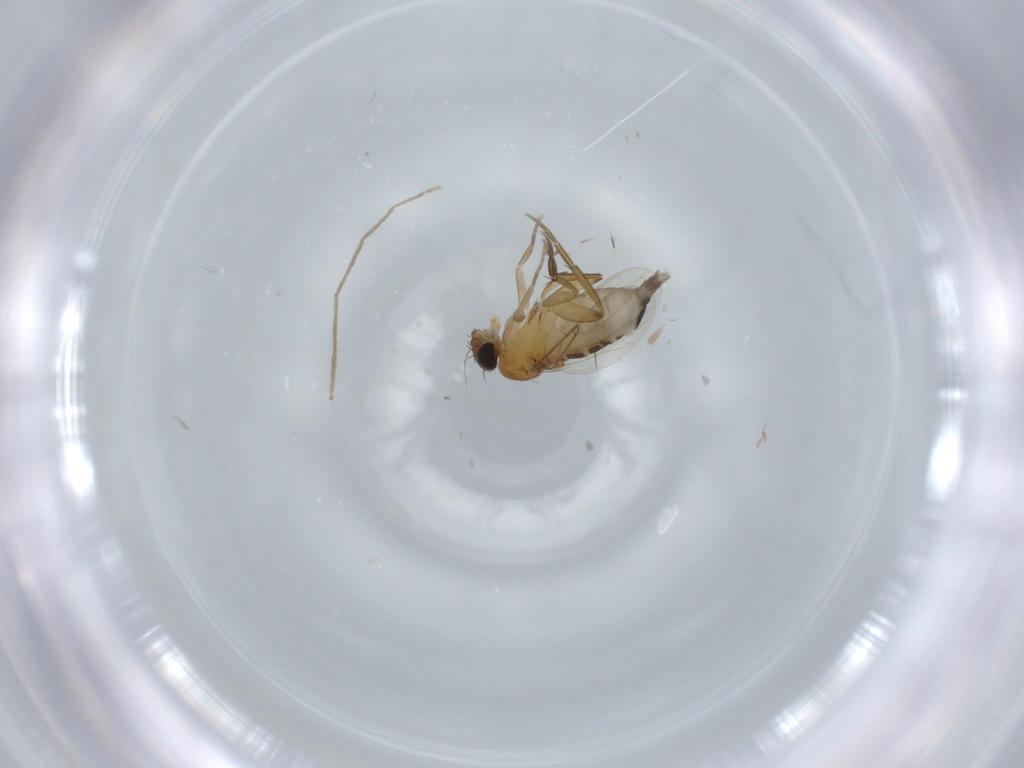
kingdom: Animalia
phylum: Arthropoda
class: Insecta
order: Diptera
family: Phoridae
